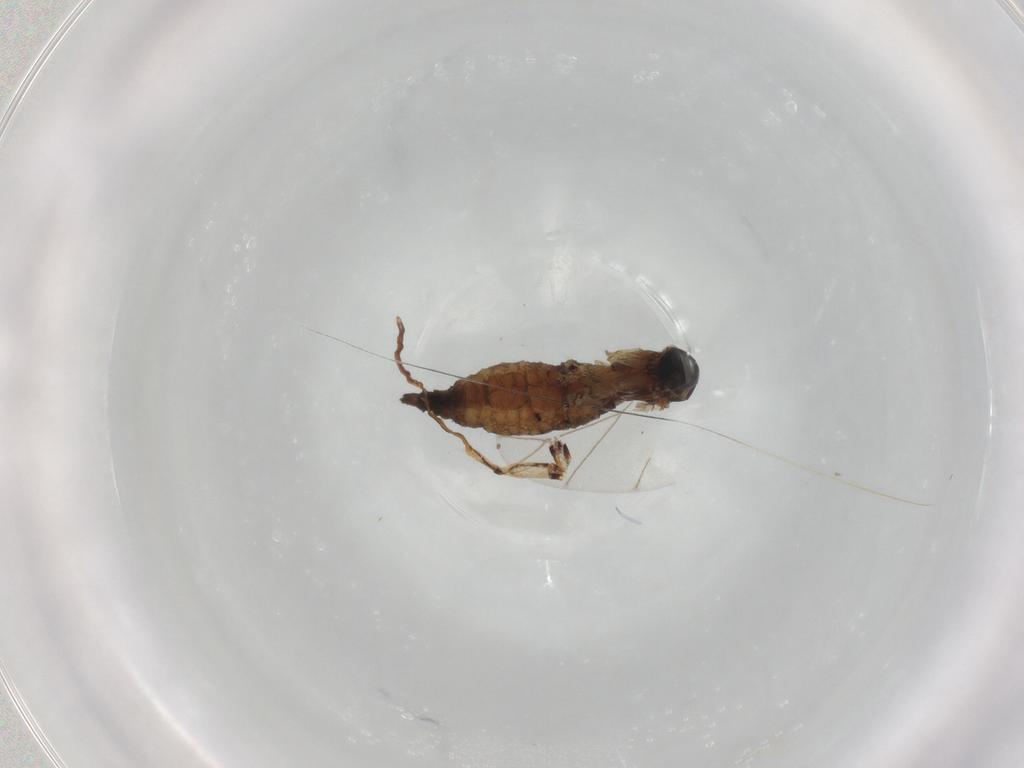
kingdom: Animalia
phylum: Arthropoda
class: Insecta
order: Diptera
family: Sciaridae
